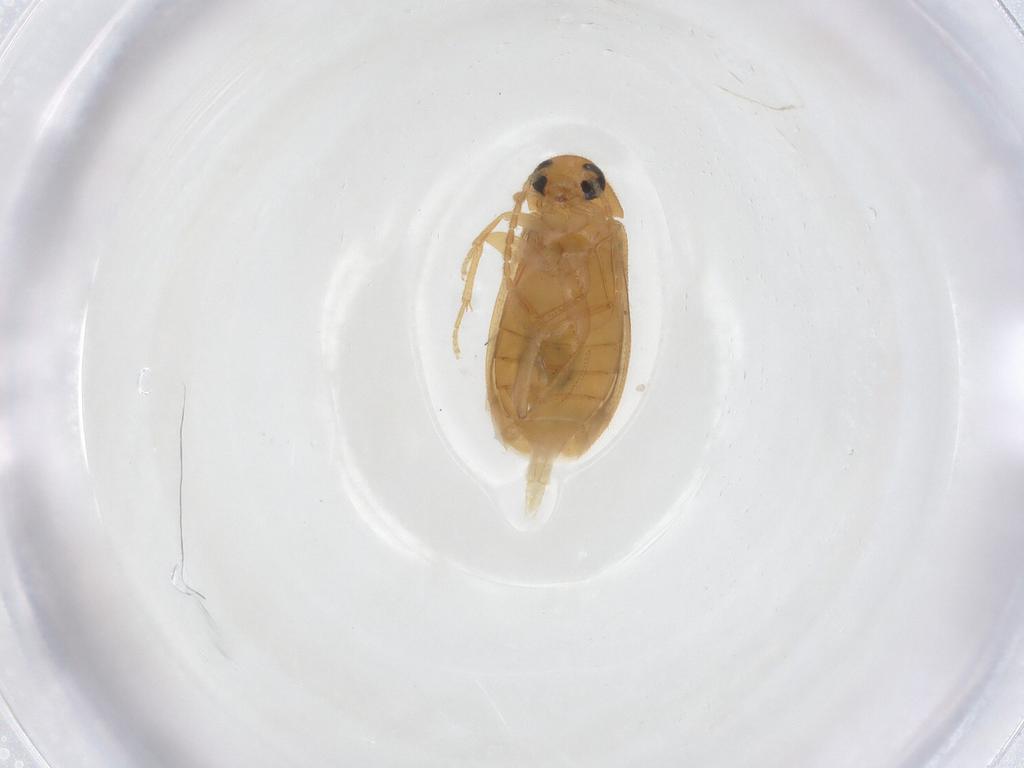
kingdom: Animalia
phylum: Arthropoda
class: Insecta
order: Coleoptera
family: Scraptiidae
